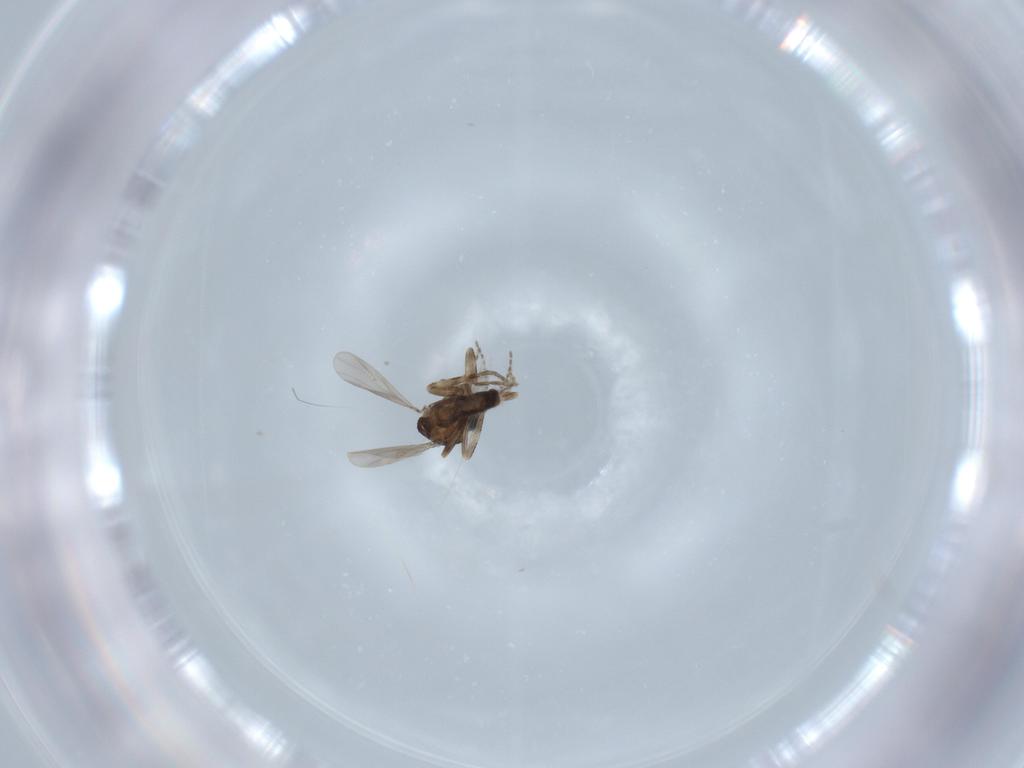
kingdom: Animalia
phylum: Arthropoda
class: Insecta
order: Diptera
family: Ceratopogonidae
